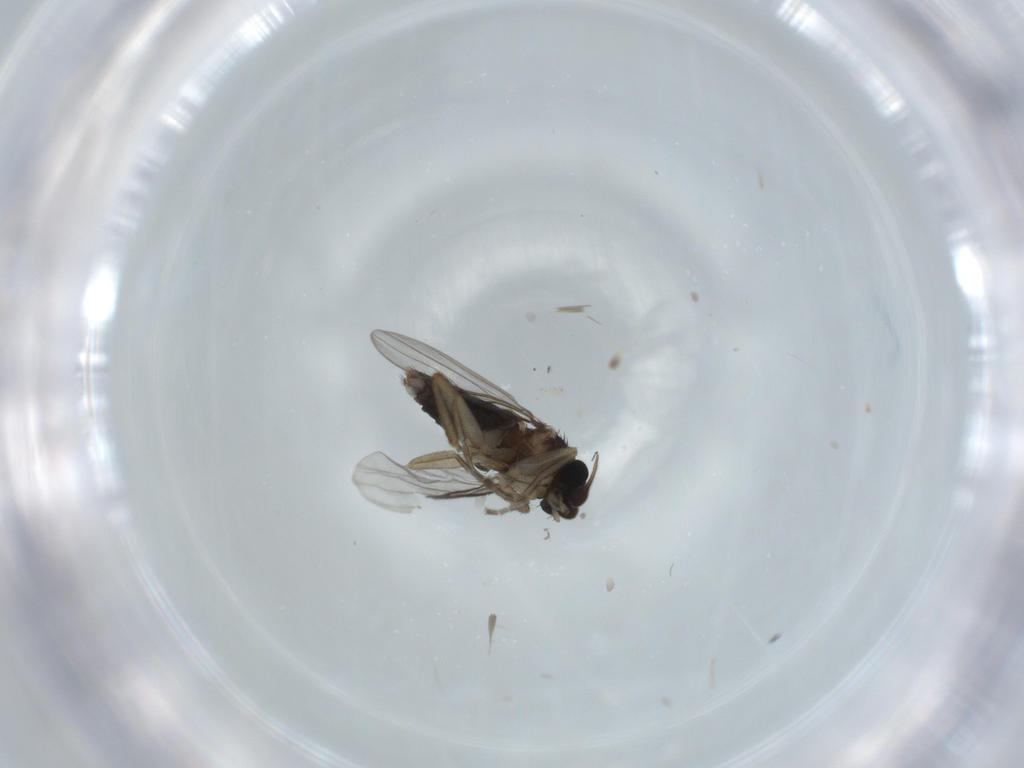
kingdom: Animalia
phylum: Arthropoda
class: Insecta
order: Diptera
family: Phoridae
